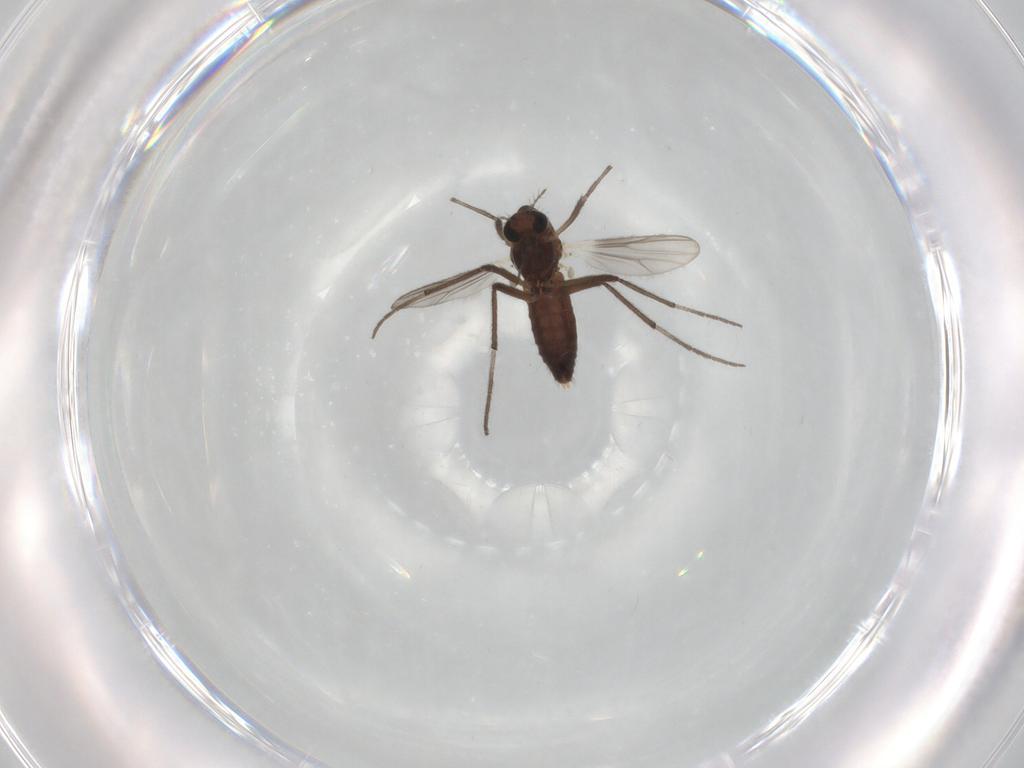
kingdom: Animalia
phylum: Arthropoda
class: Insecta
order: Diptera
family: Chironomidae
